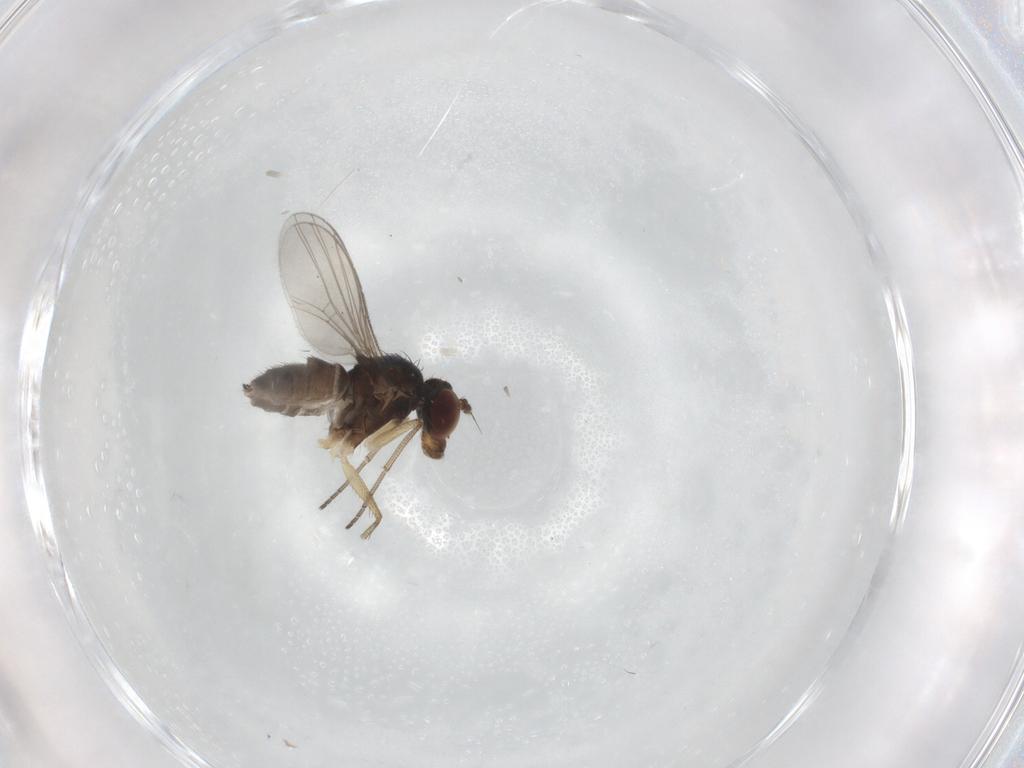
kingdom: Animalia
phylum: Arthropoda
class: Insecta
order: Diptera
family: Dolichopodidae
